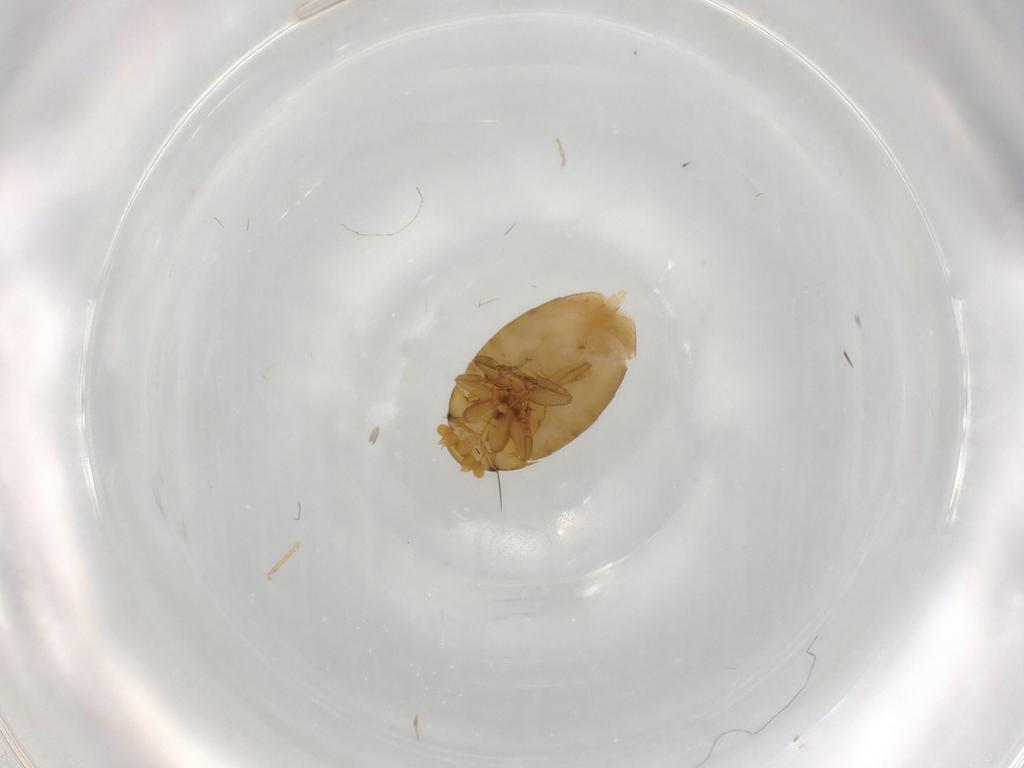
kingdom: Animalia
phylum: Arthropoda
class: Insecta
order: Diptera
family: Phoridae
